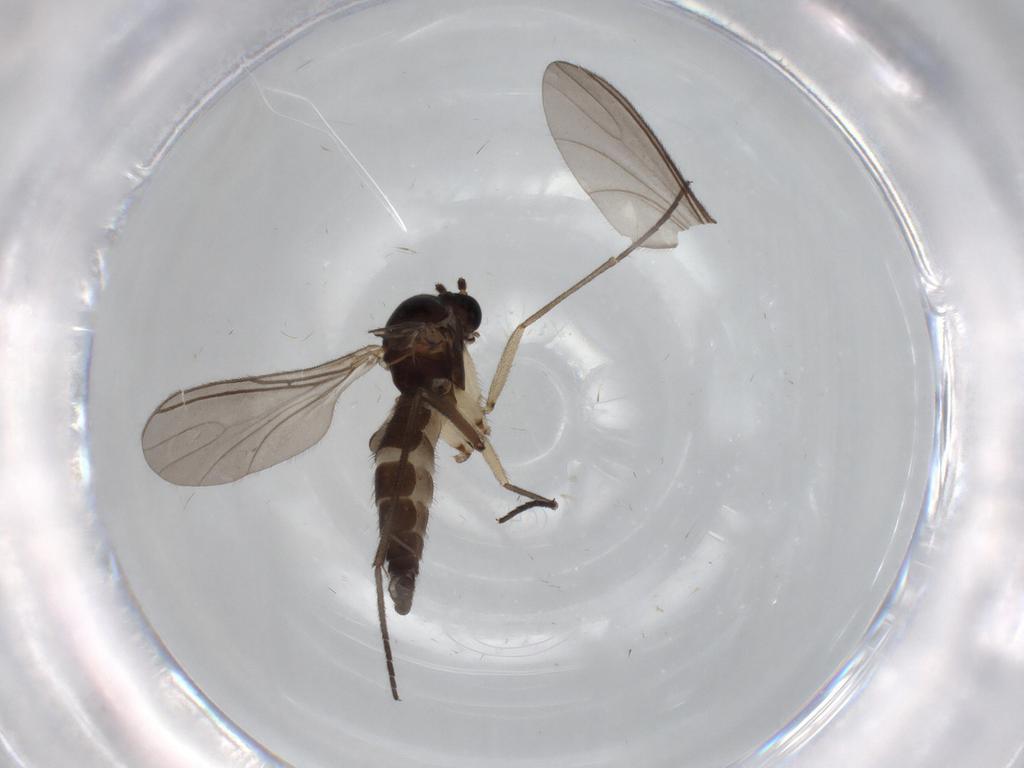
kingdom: Animalia
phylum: Arthropoda
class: Insecta
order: Diptera
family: Sciaridae
